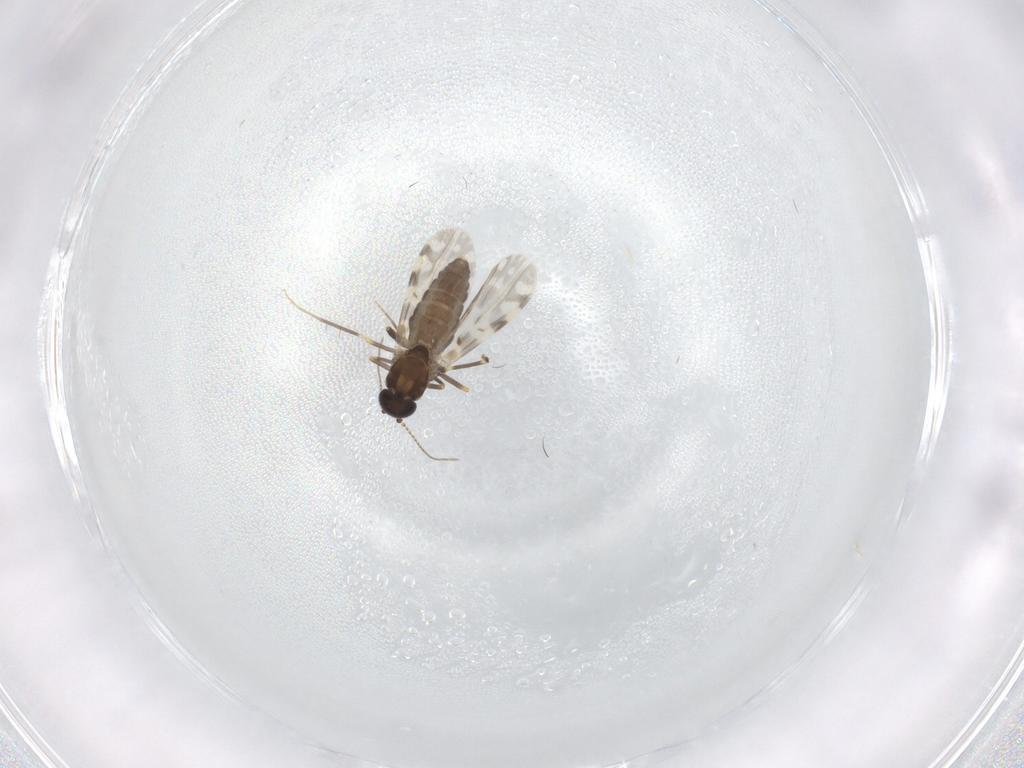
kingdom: Animalia
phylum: Arthropoda
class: Insecta
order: Diptera
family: Ceratopogonidae
